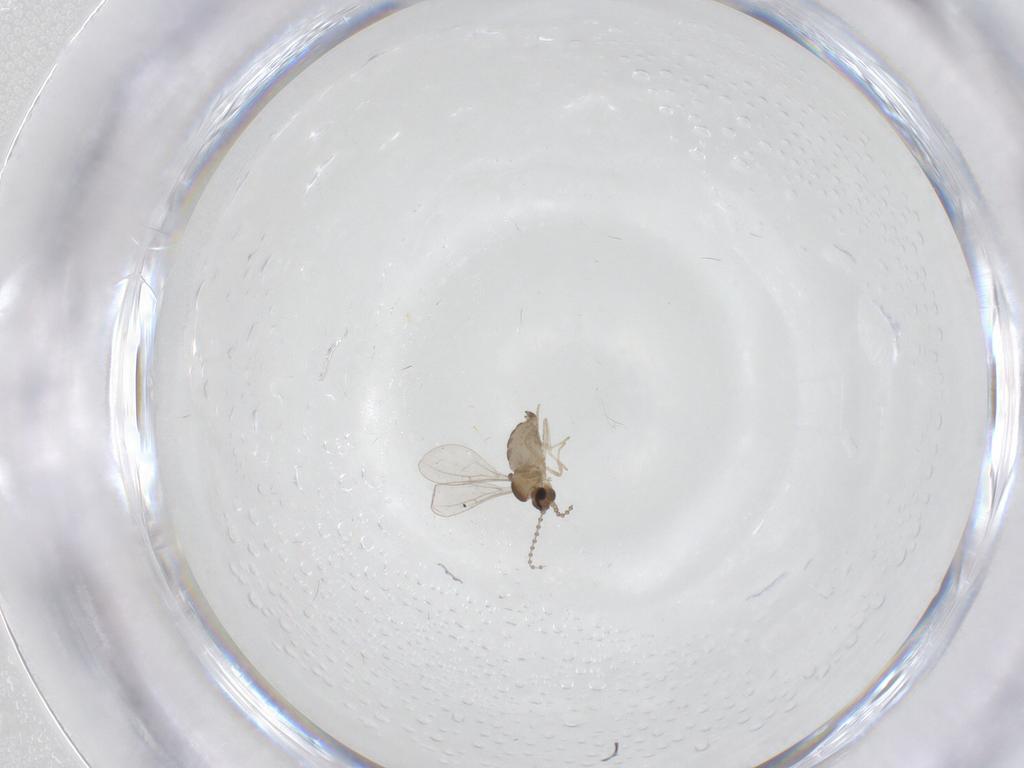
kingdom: Animalia
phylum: Arthropoda
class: Insecta
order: Diptera
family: Cecidomyiidae
